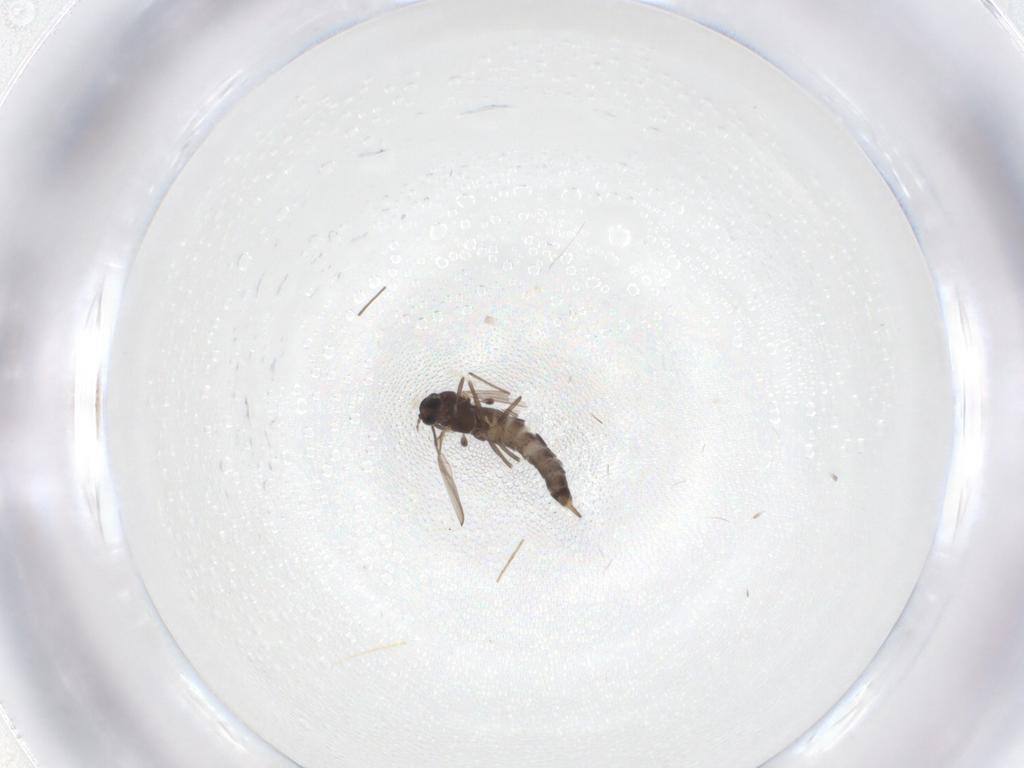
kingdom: Animalia
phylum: Arthropoda
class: Insecta
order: Diptera
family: Chironomidae
